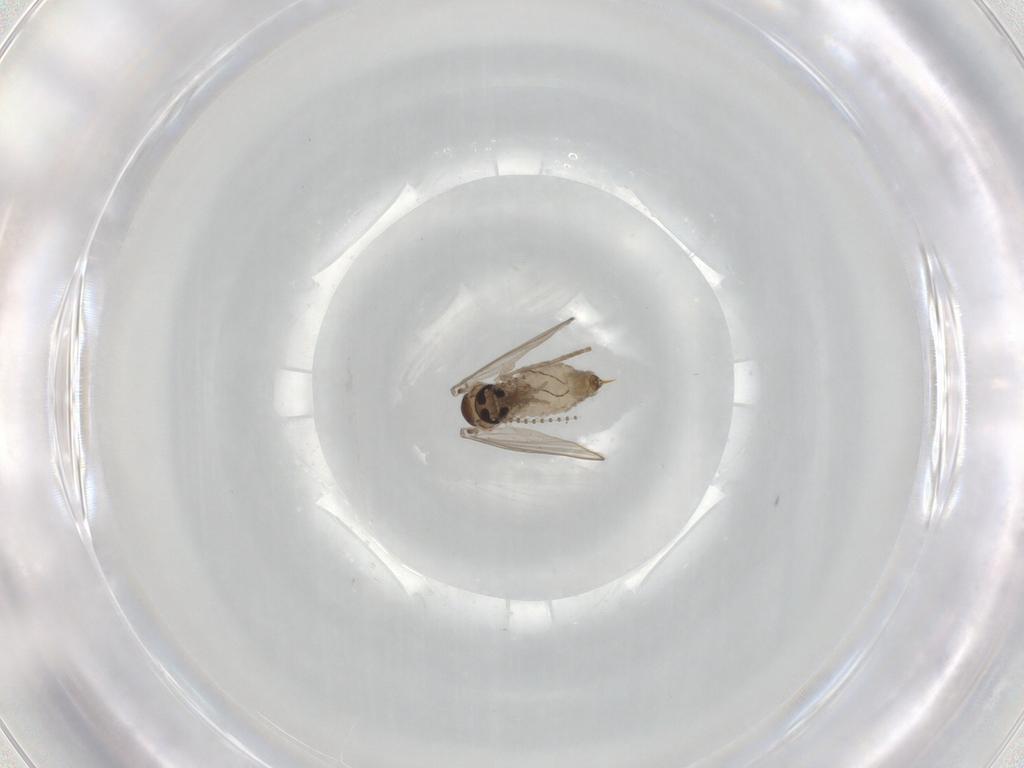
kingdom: Animalia
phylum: Arthropoda
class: Insecta
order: Diptera
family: Psychodidae
